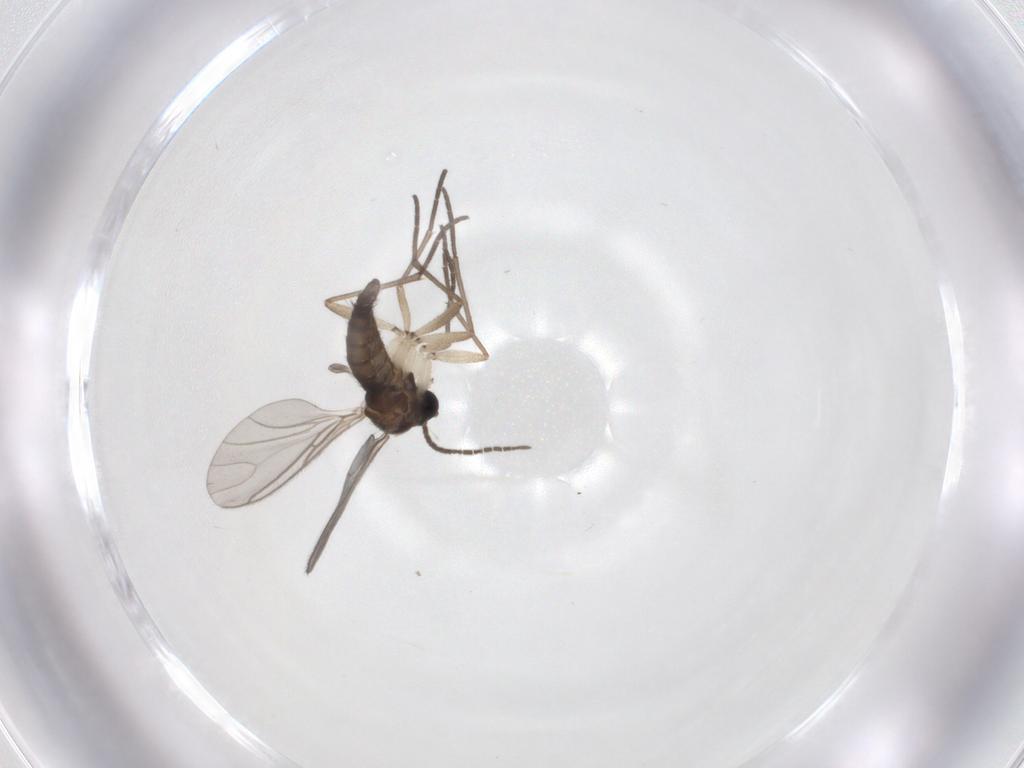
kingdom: Animalia
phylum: Arthropoda
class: Insecta
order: Diptera
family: Sciaridae
